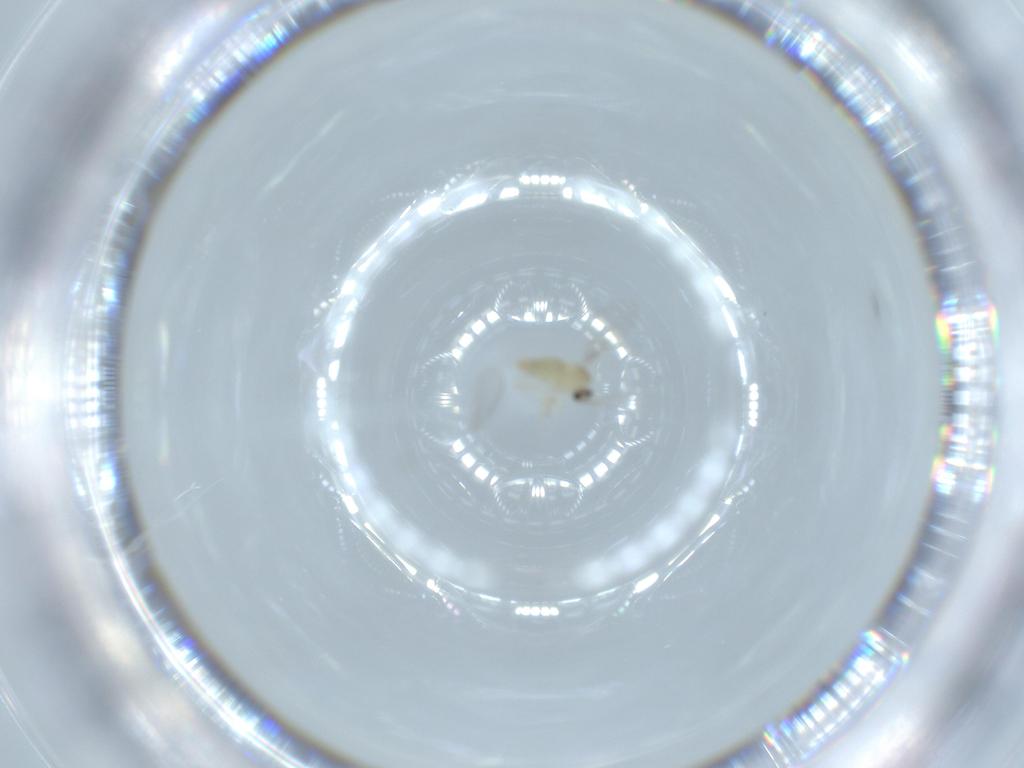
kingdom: Animalia
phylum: Arthropoda
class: Insecta
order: Diptera
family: Cecidomyiidae
